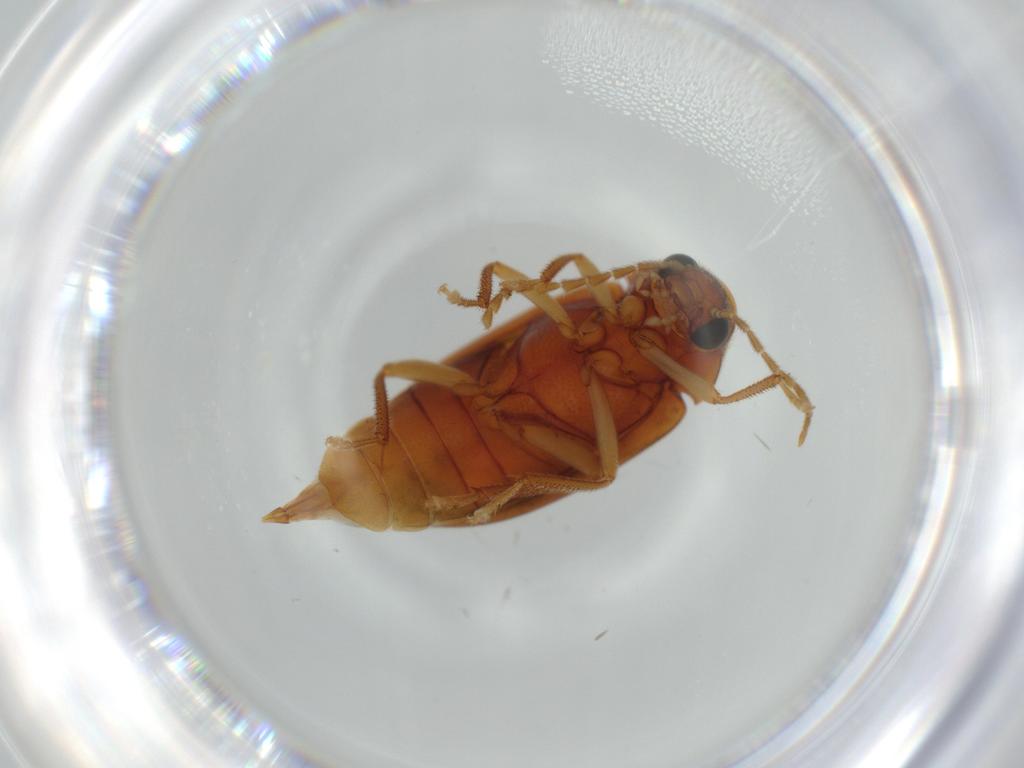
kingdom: Animalia
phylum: Arthropoda
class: Insecta
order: Coleoptera
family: Ptilodactylidae
